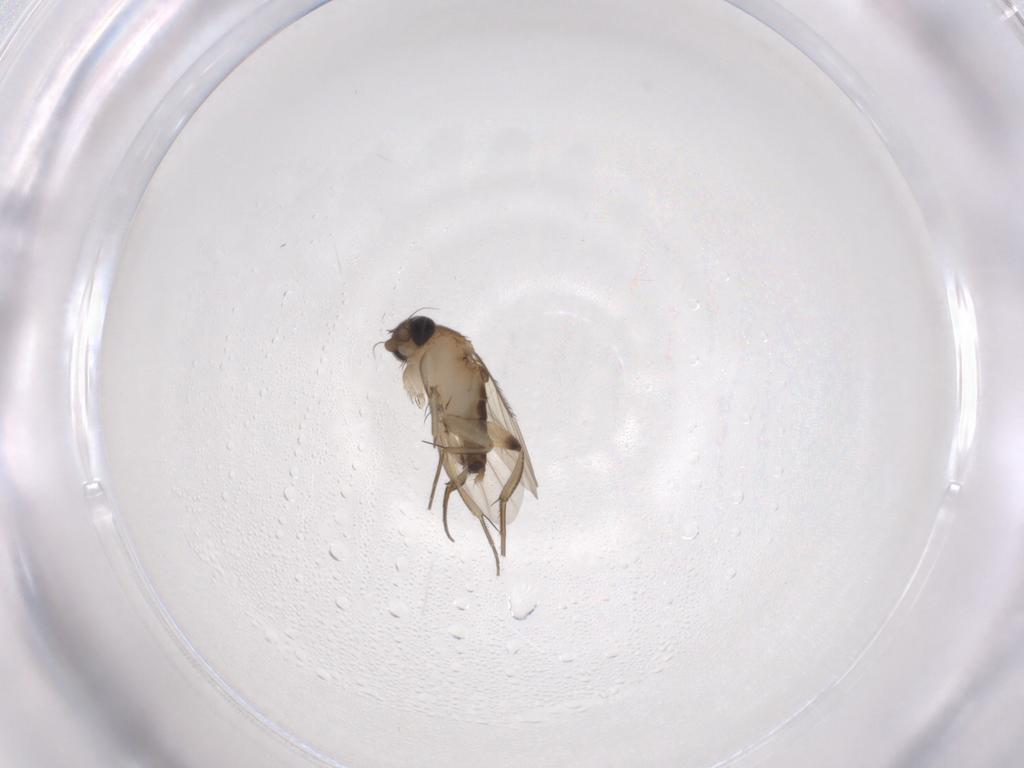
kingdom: Animalia
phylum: Arthropoda
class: Insecta
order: Diptera
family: Phoridae
